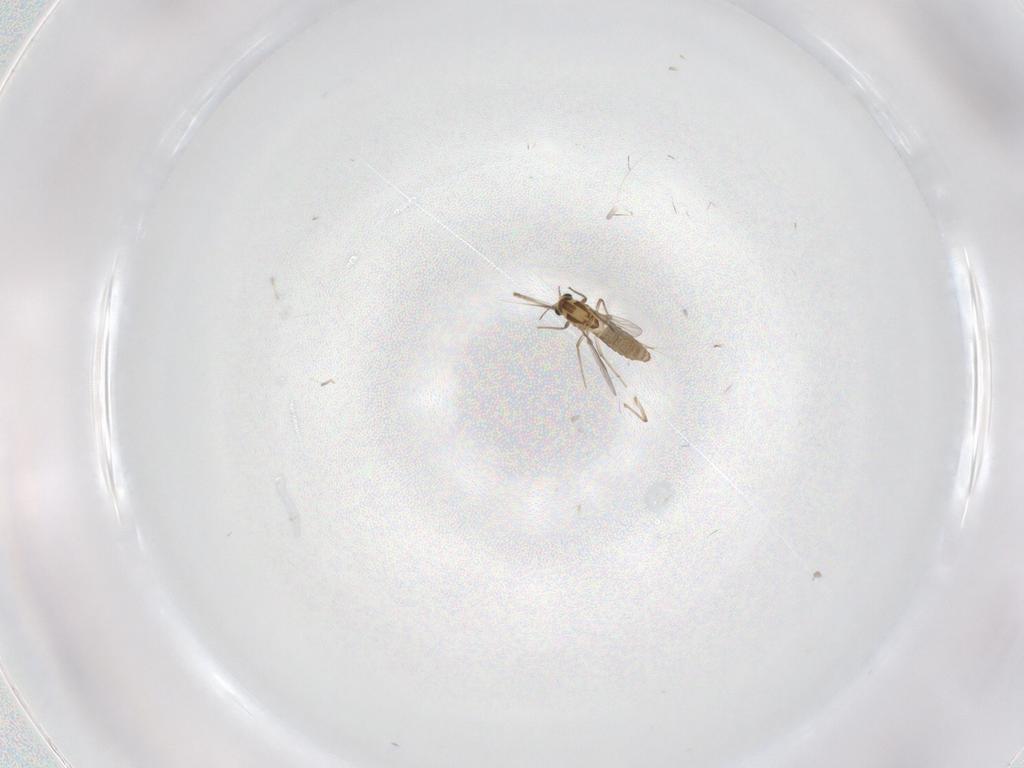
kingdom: Animalia
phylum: Arthropoda
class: Insecta
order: Diptera
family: Chironomidae
